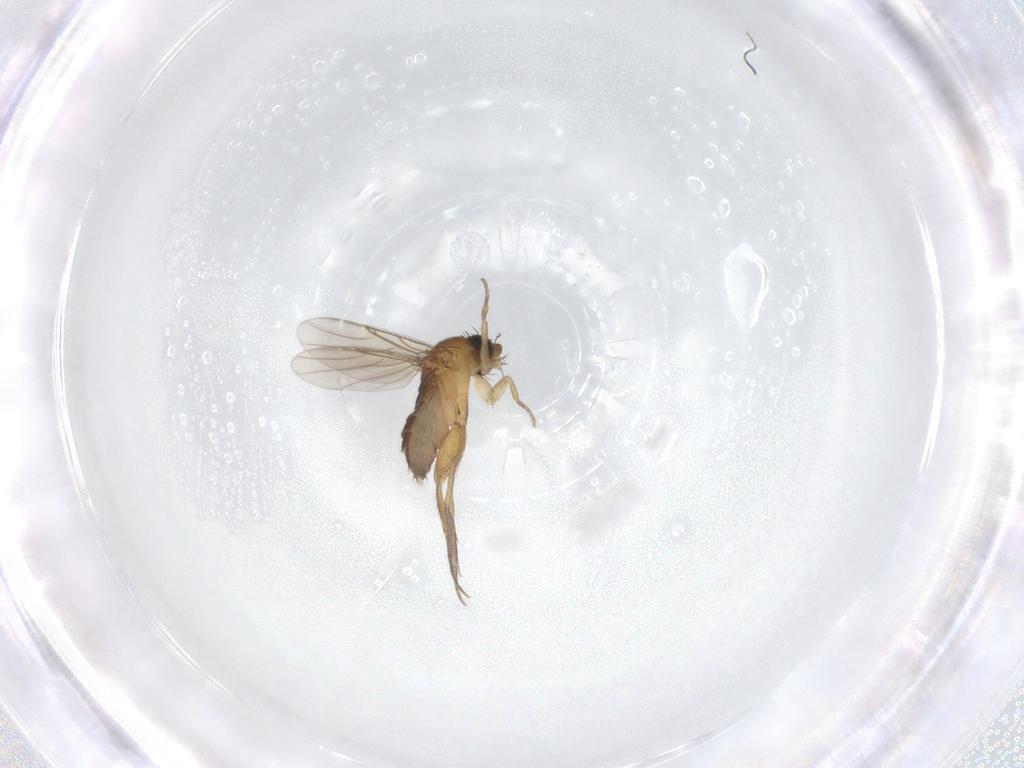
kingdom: Animalia
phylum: Arthropoda
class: Insecta
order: Diptera
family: Phoridae
